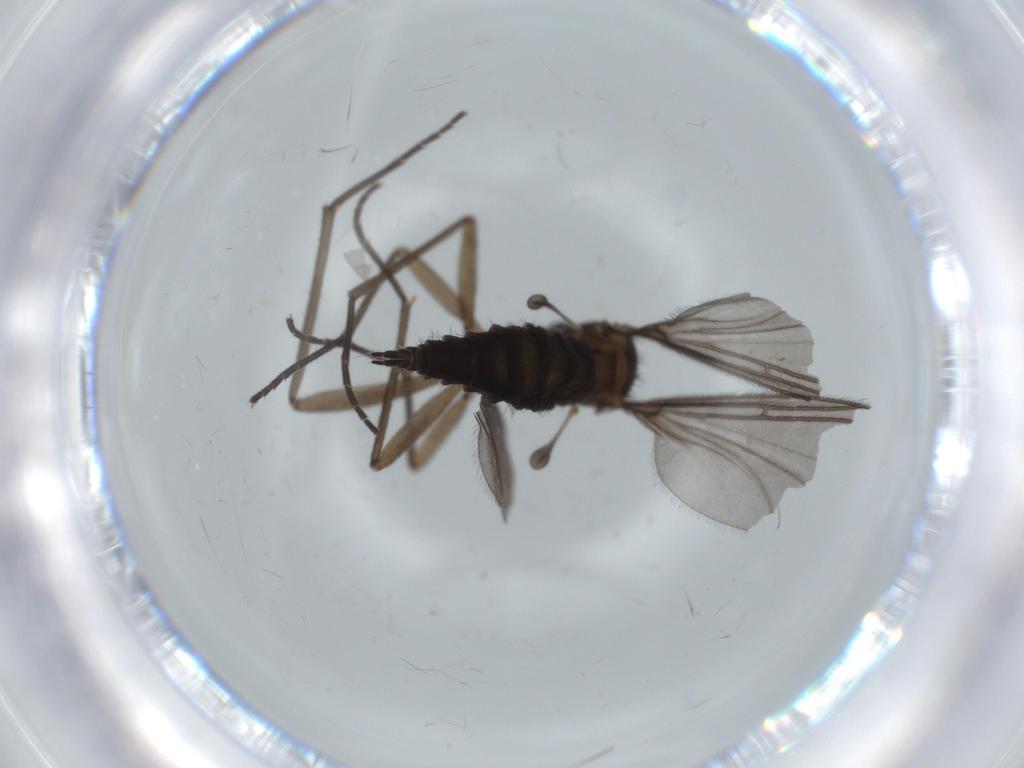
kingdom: Animalia
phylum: Arthropoda
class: Insecta
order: Diptera
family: Sciaridae
